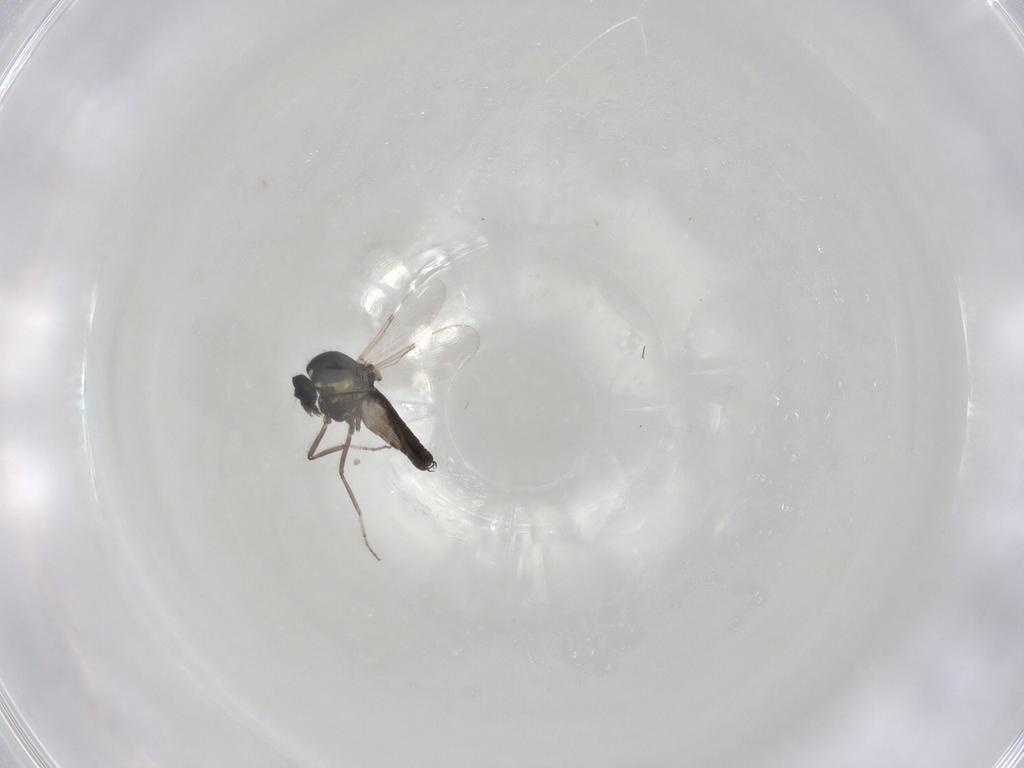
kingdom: Animalia
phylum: Arthropoda
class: Insecta
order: Diptera
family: Ceratopogonidae
